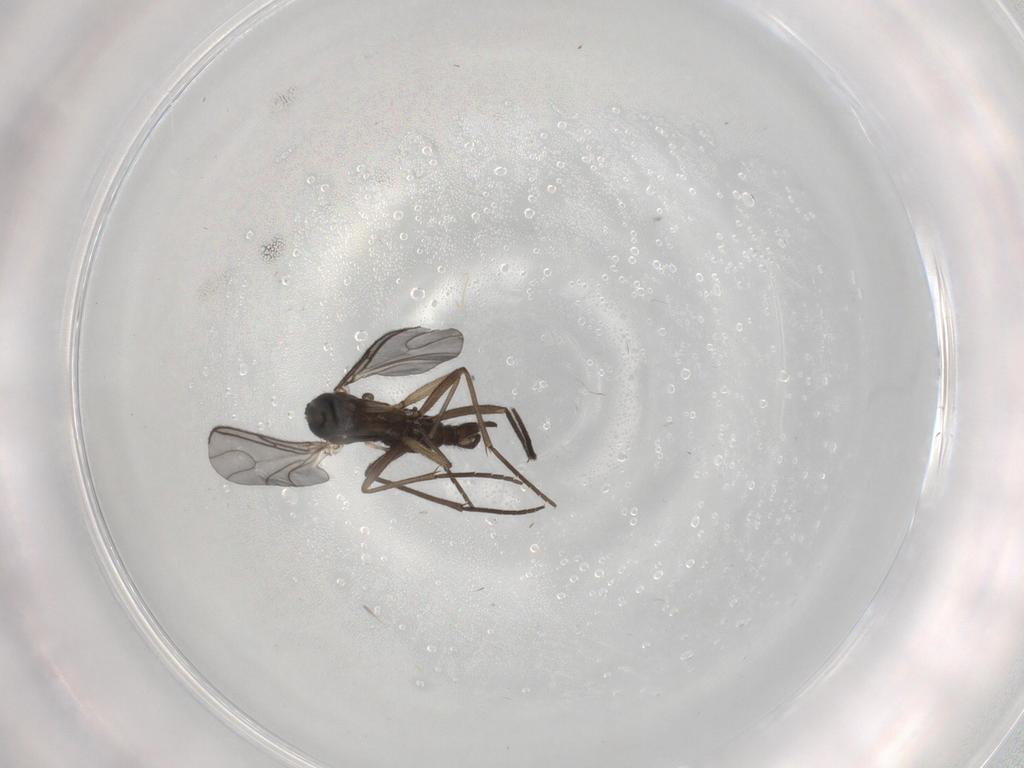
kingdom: Animalia
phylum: Arthropoda
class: Insecta
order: Diptera
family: Sciaridae
